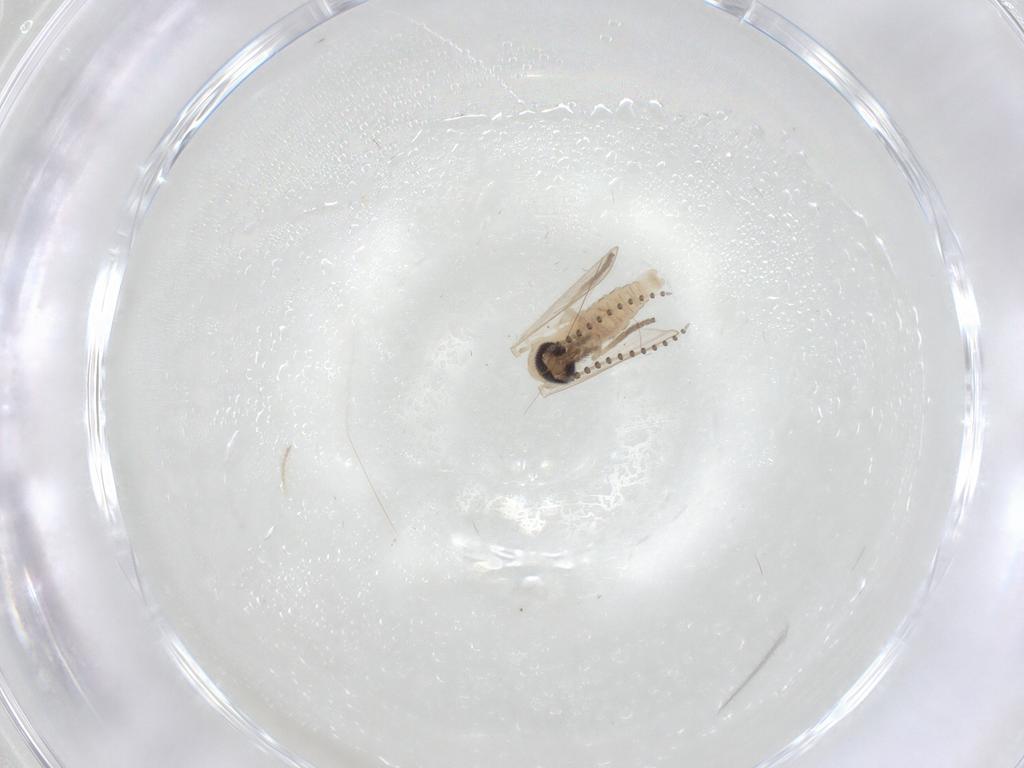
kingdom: Animalia
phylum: Arthropoda
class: Insecta
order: Diptera
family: Psychodidae
